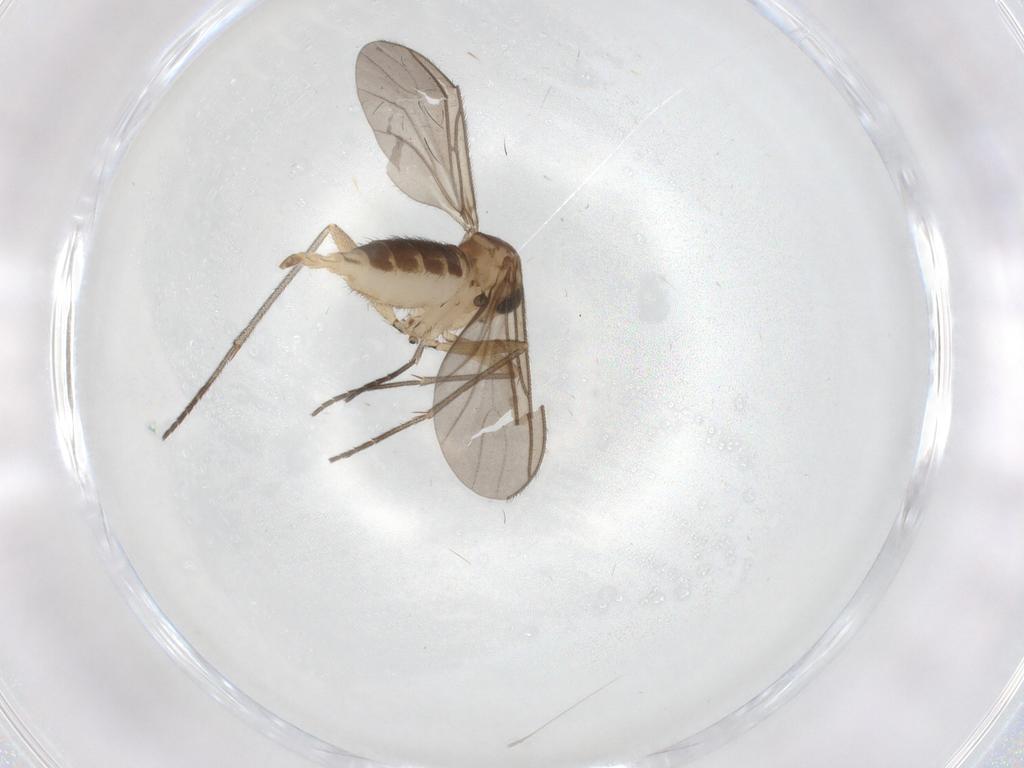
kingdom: Animalia
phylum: Arthropoda
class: Insecta
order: Diptera
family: Sciaridae
